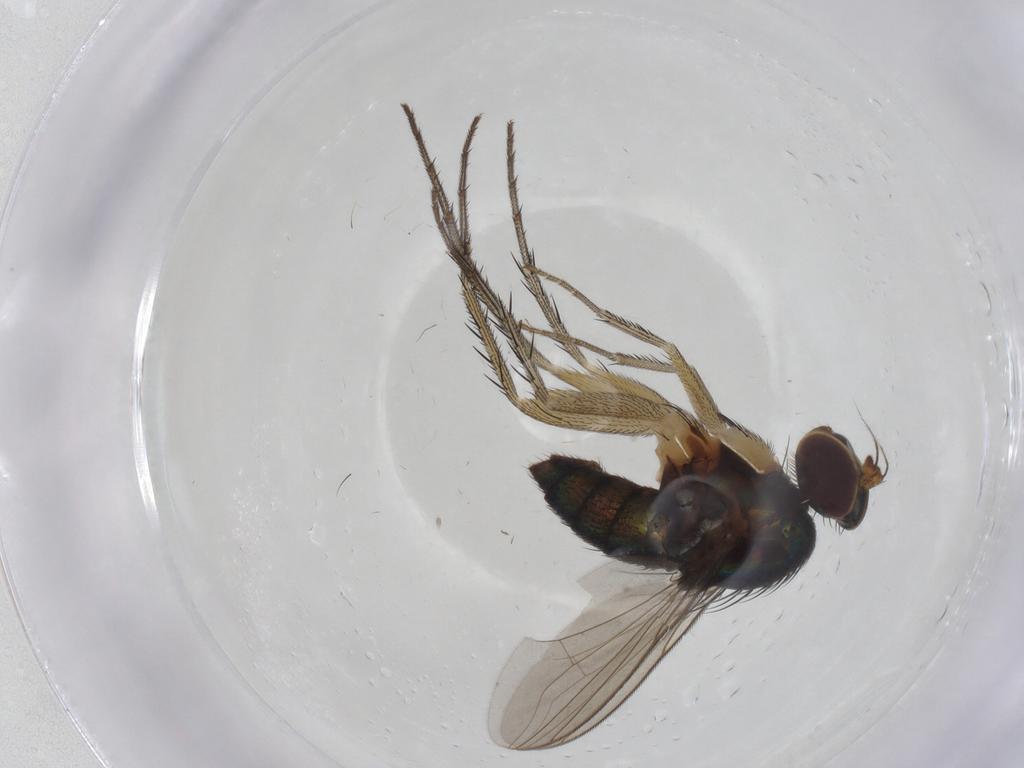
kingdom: Animalia
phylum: Arthropoda
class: Insecta
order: Diptera
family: Dolichopodidae
